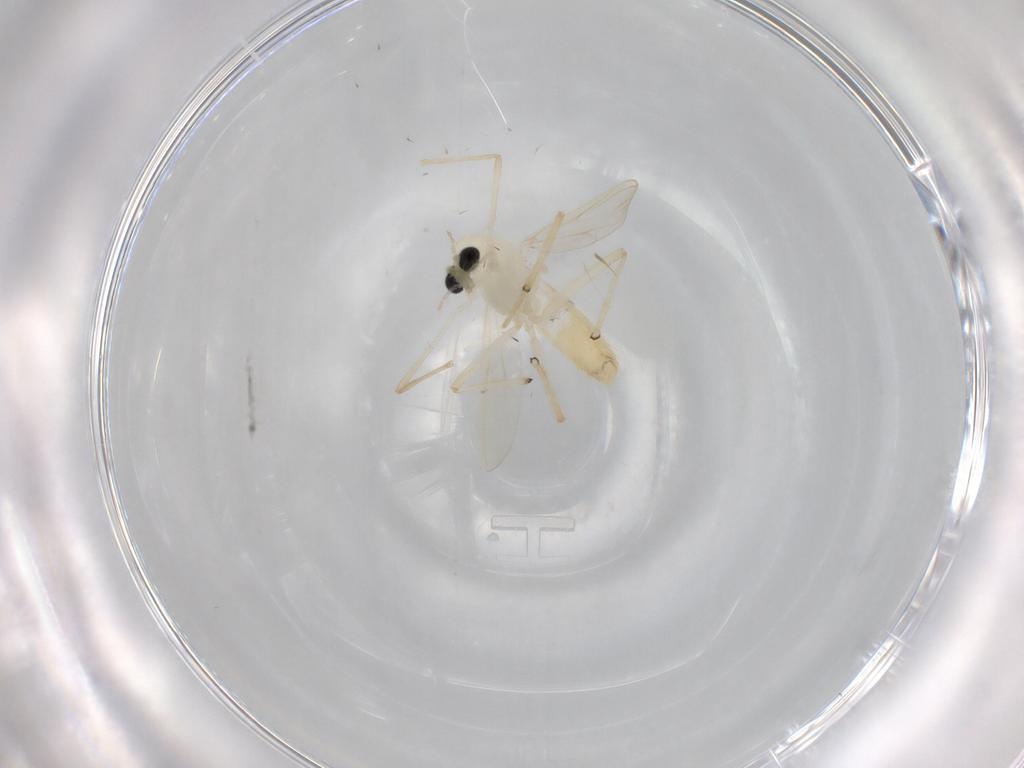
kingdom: Animalia
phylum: Arthropoda
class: Insecta
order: Diptera
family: Chironomidae
